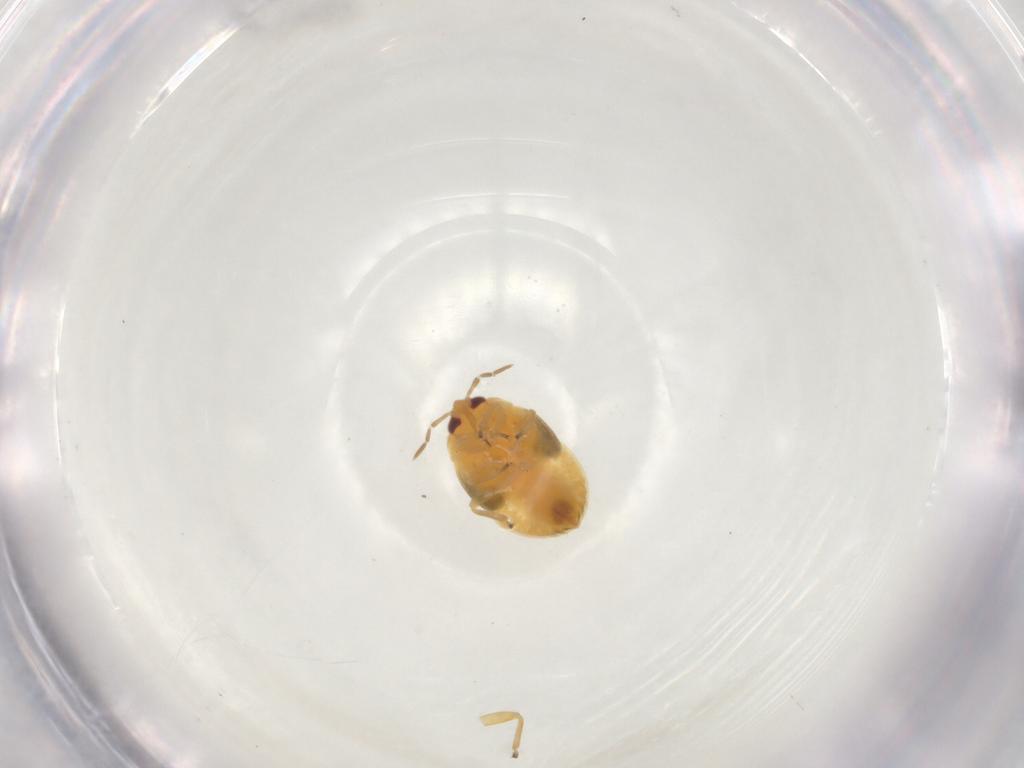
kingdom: Animalia
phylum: Arthropoda
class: Insecta
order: Hemiptera
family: Anthocoridae
